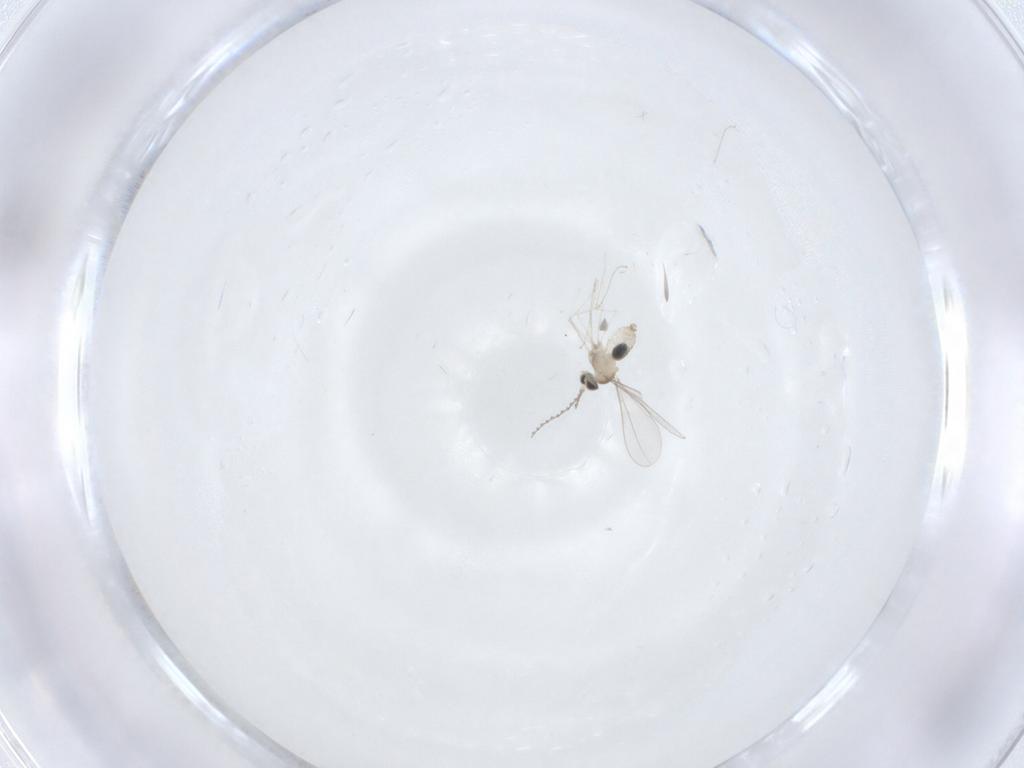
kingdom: Animalia
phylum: Arthropoda
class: Insecta
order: Diptera
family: Cecidomyiidae
